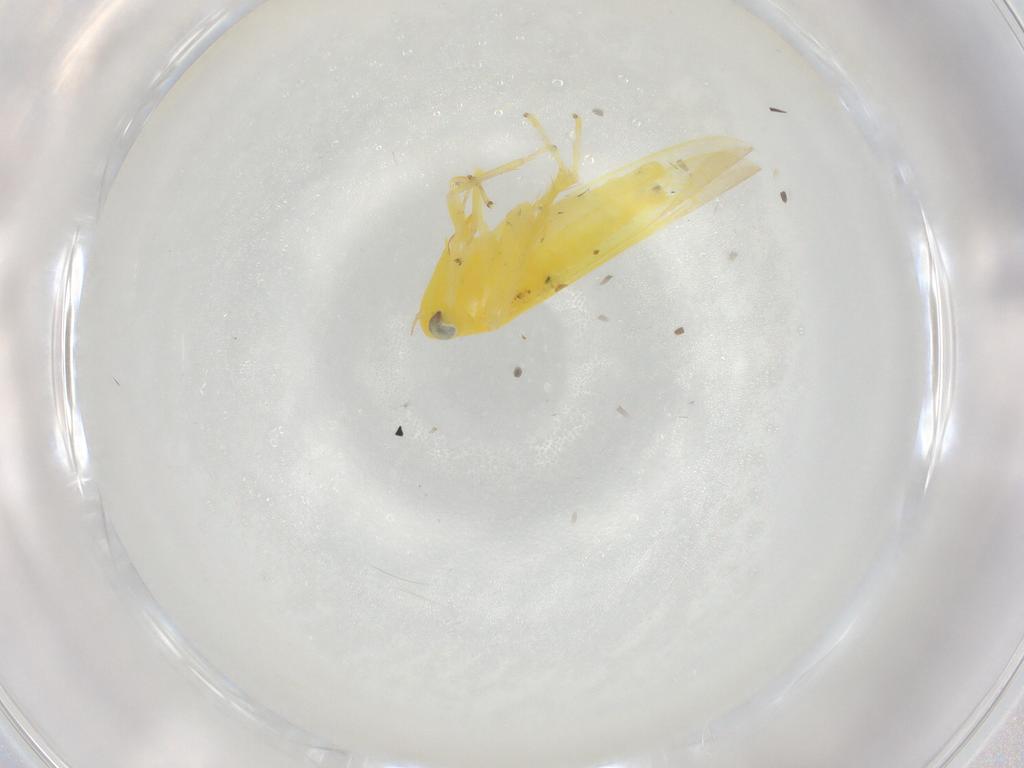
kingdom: Animalia
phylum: Arthropoda
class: Insecta
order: Hemiptera
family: Cicadellidae
